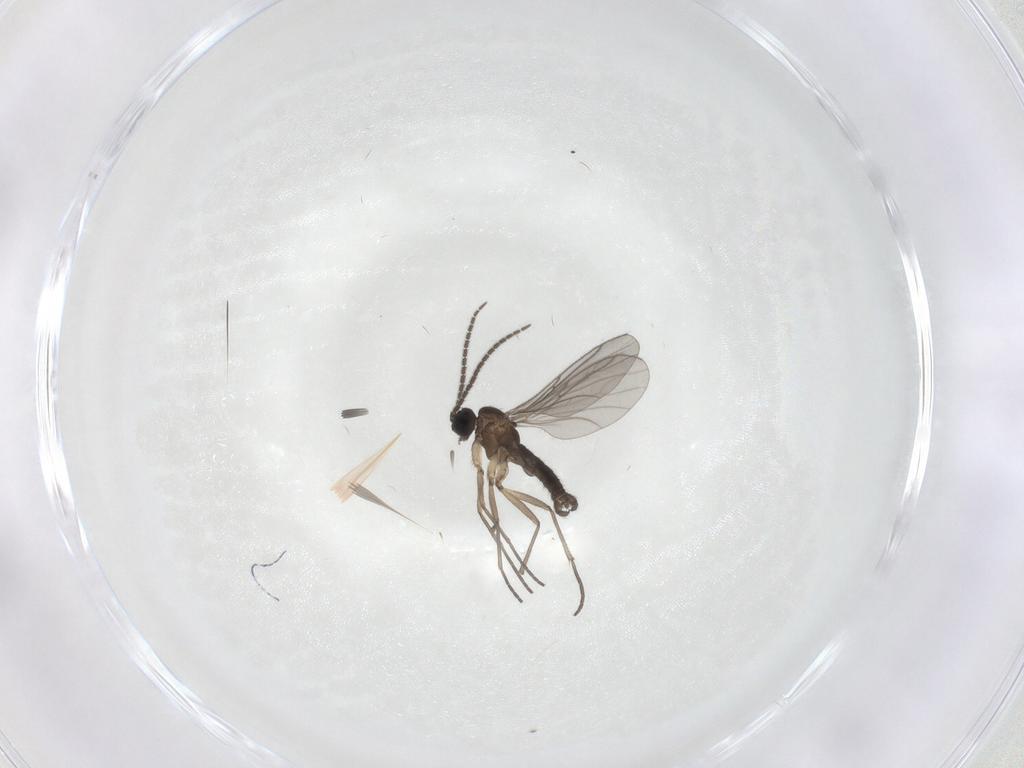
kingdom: Animalia
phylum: Arthropoda
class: Insecta
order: Diptera
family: Sciaridae
